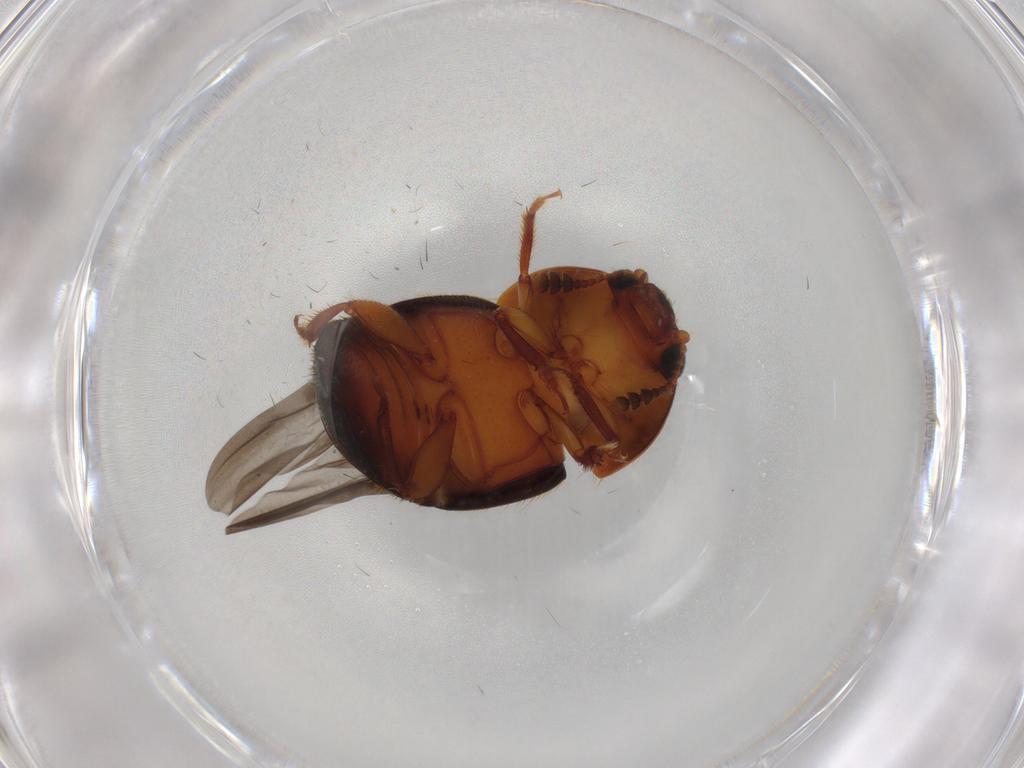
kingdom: Animalia
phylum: Arthropoda
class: Insecta
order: Coleoptera
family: Nitidulidae
